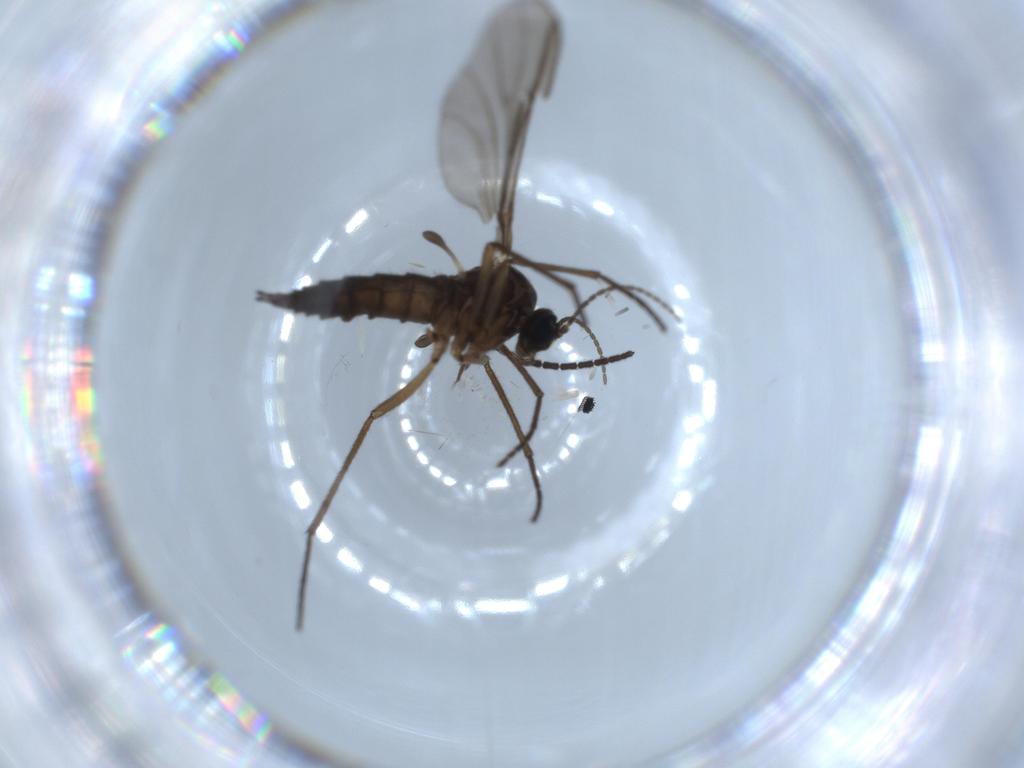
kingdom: Animalia
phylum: Arthropoda
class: Insecta
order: Diptera
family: Sciaridae
